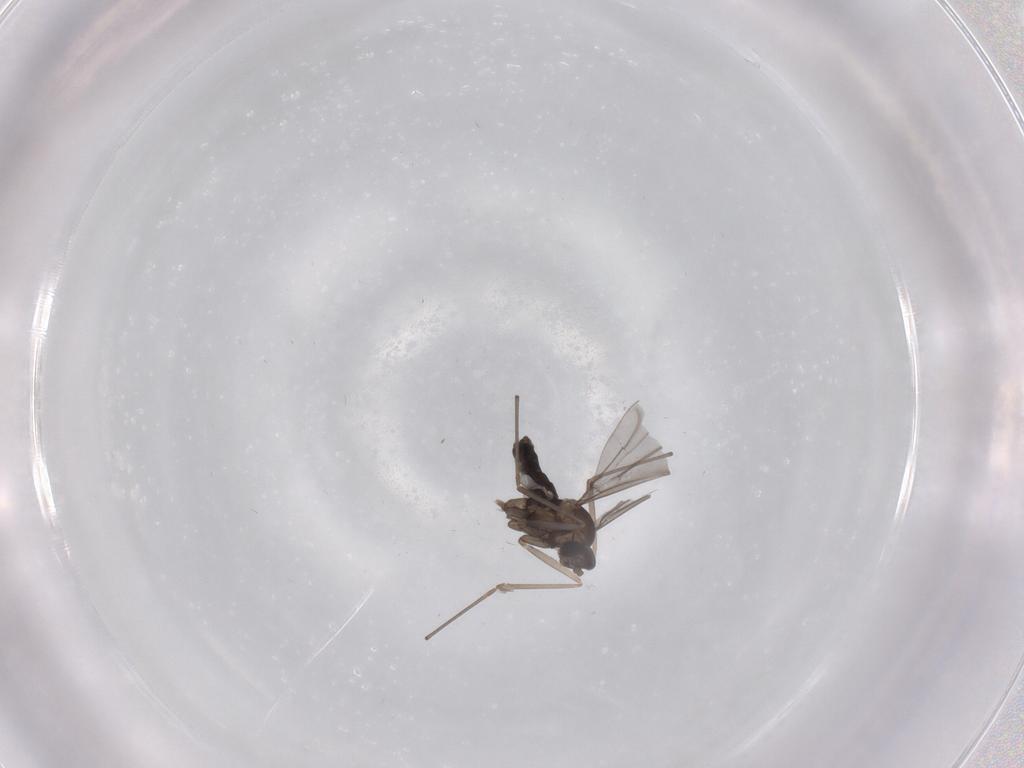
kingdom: Animalia
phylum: Arthropoda
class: Insecta
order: Diptera
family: Cecidomyiidae
